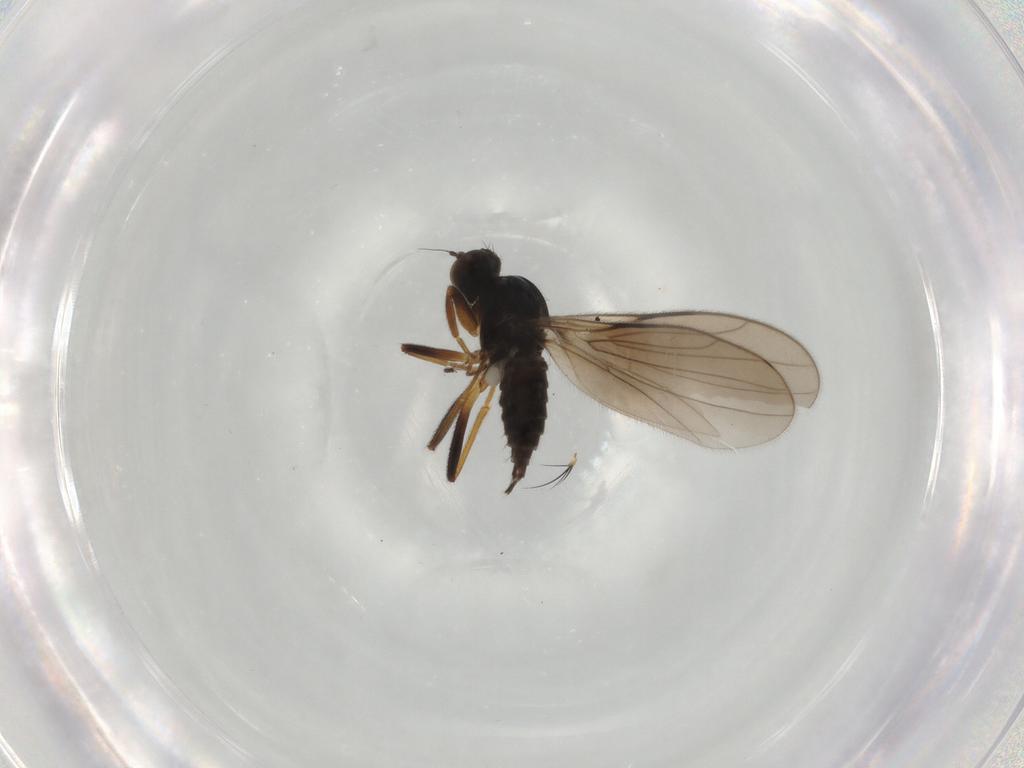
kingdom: Animalia
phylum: Arthropoda
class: Insecta
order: Diptera
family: Hybotidae
